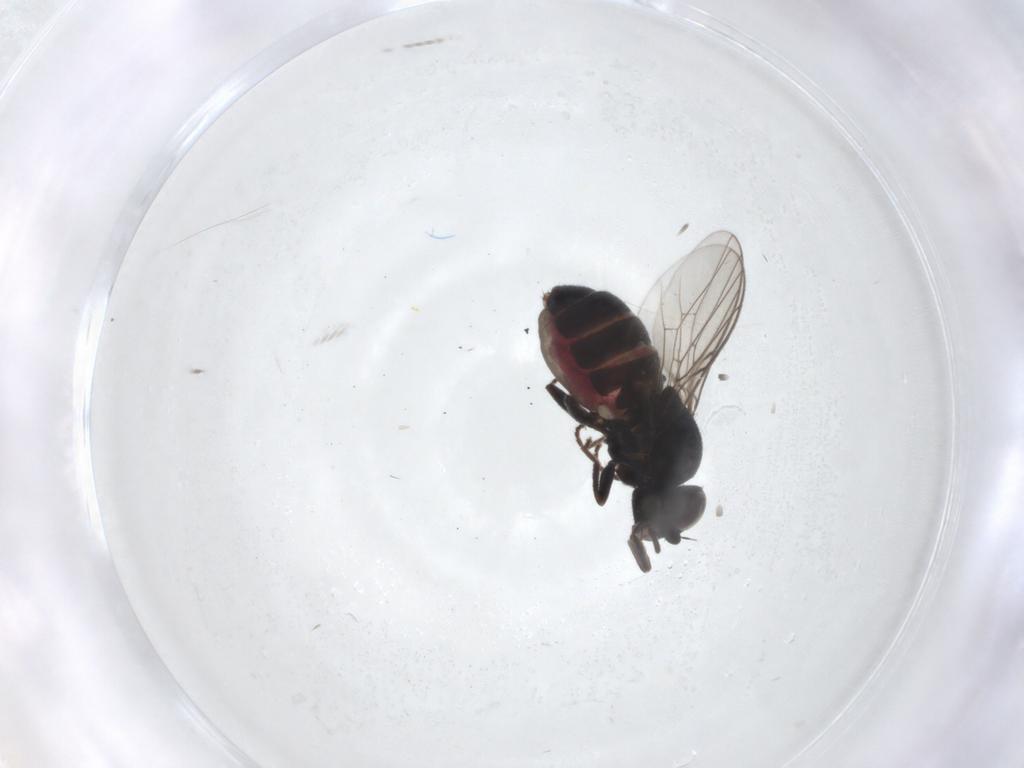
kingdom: Animalia
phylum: Arthropoda
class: Insecta
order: Diptera
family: Chloropidae
